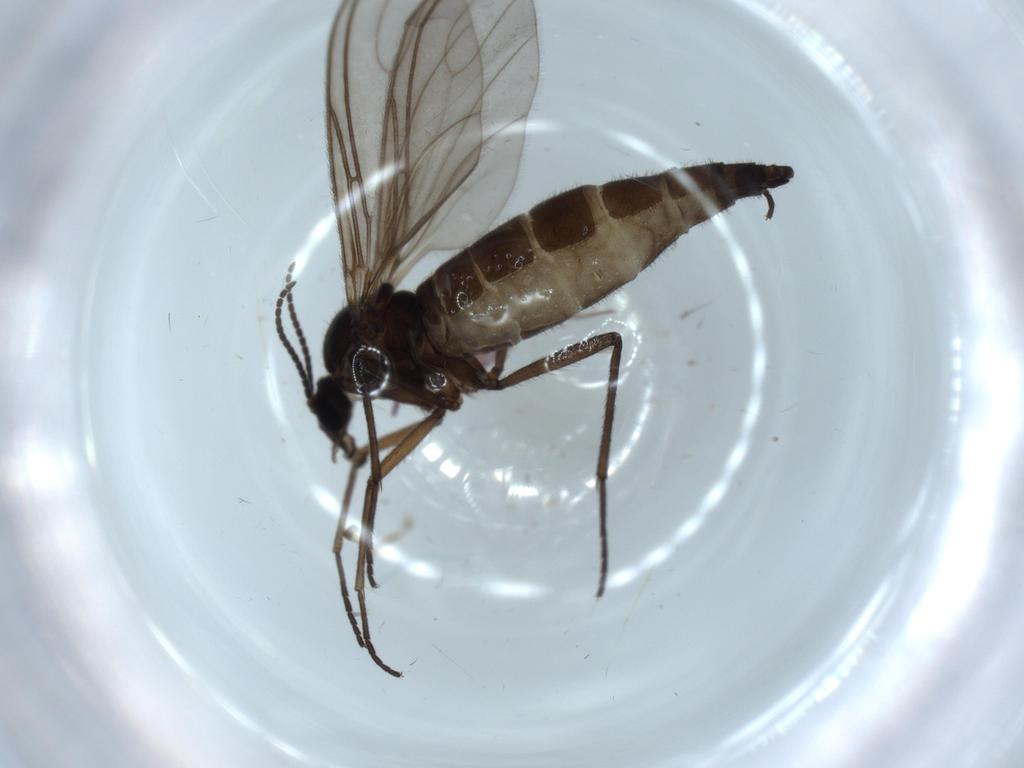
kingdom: Animalia
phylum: Arthropoda
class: Insecta
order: Diptera
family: Sciaridae
